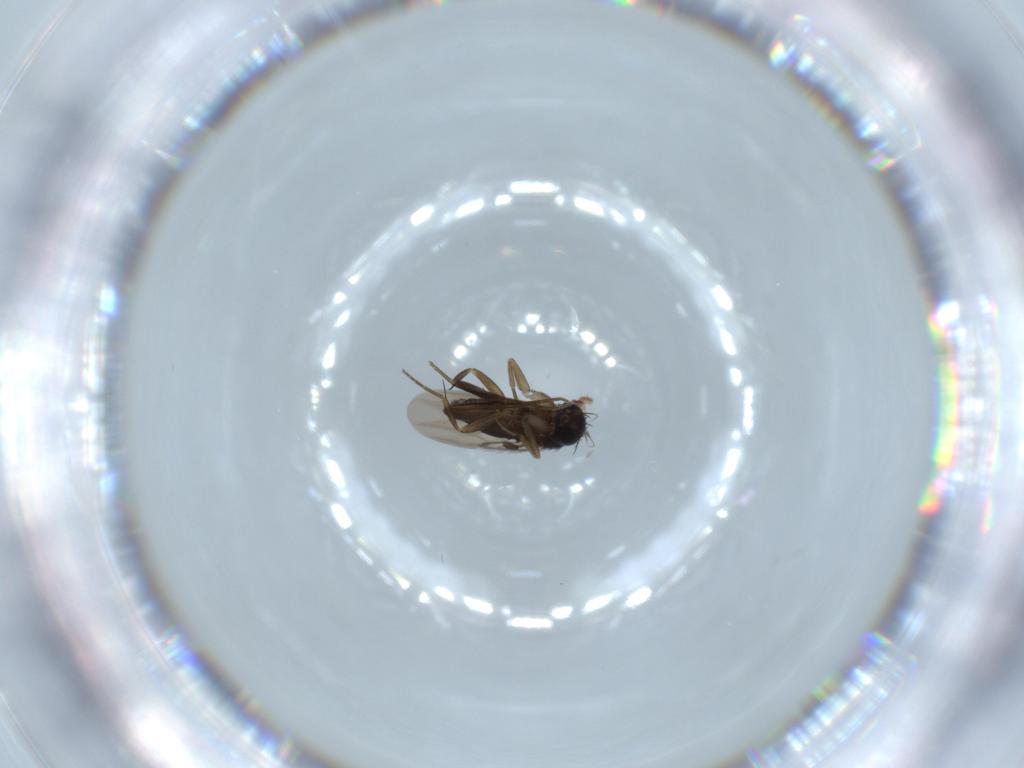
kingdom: Animalia
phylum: Arthropoda
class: Insecta
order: Diptera
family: Phoridae
